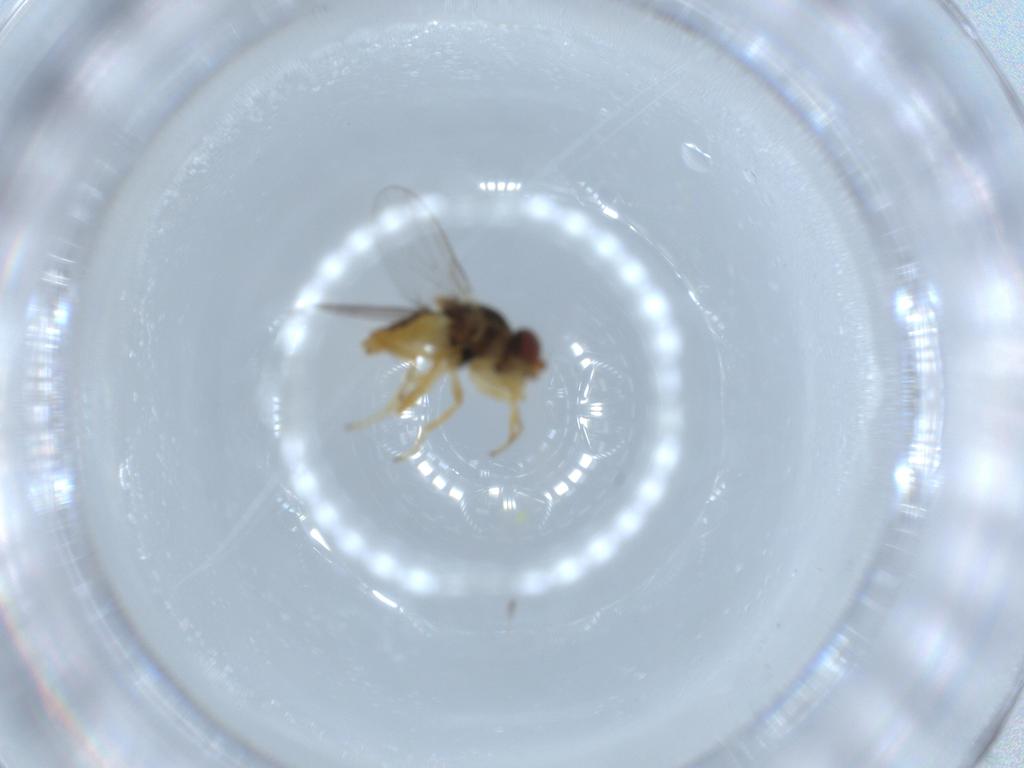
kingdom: Animalia
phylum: Arthropoda
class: Insecta
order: Diptera
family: Chloropidae
